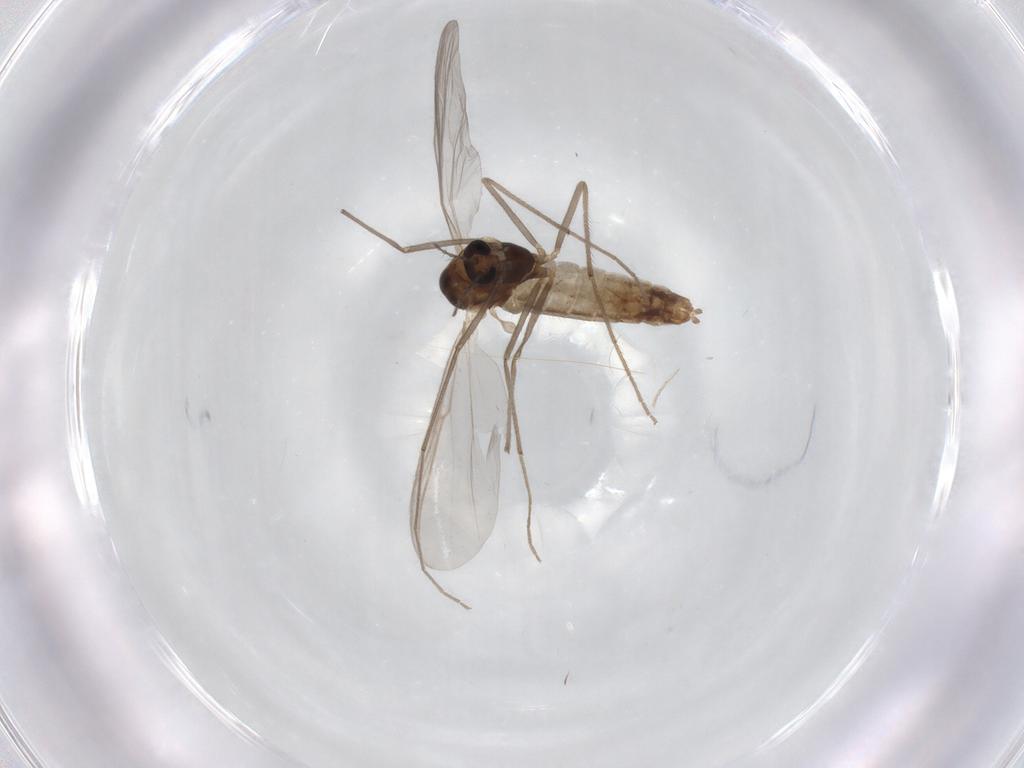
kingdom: Animalia
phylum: Arthropoda
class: Insecta
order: Diptera
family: Chironomidae
